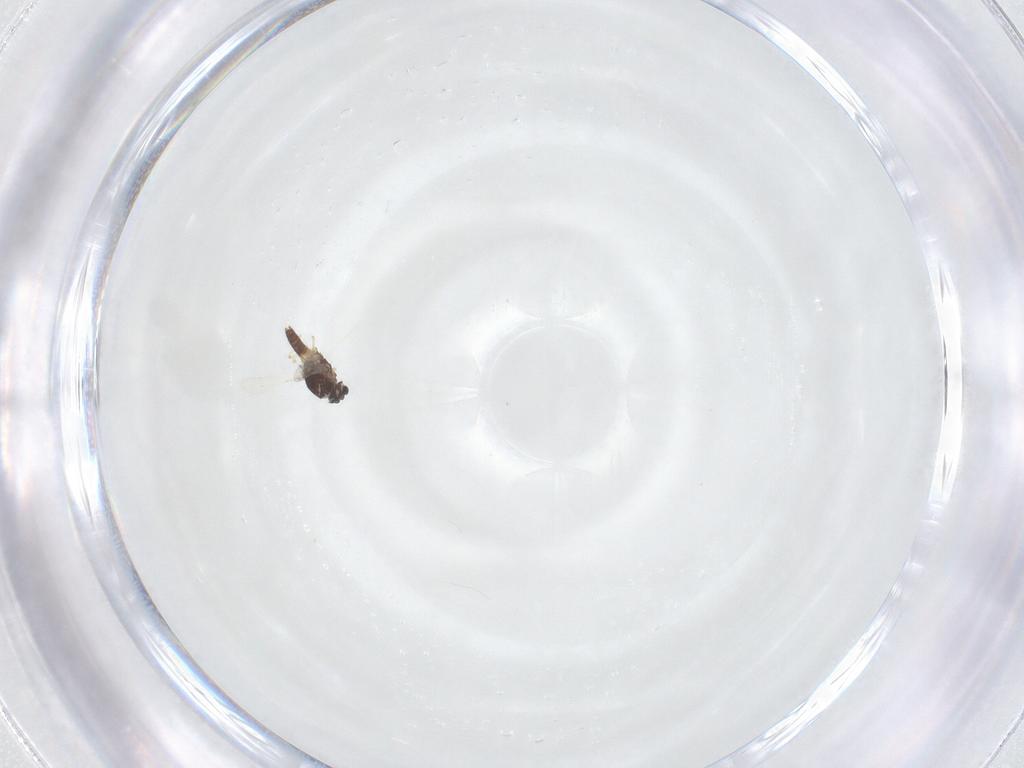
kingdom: Animalia
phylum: Arthropoda
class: Insecta
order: Diptera
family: Chironomidae
